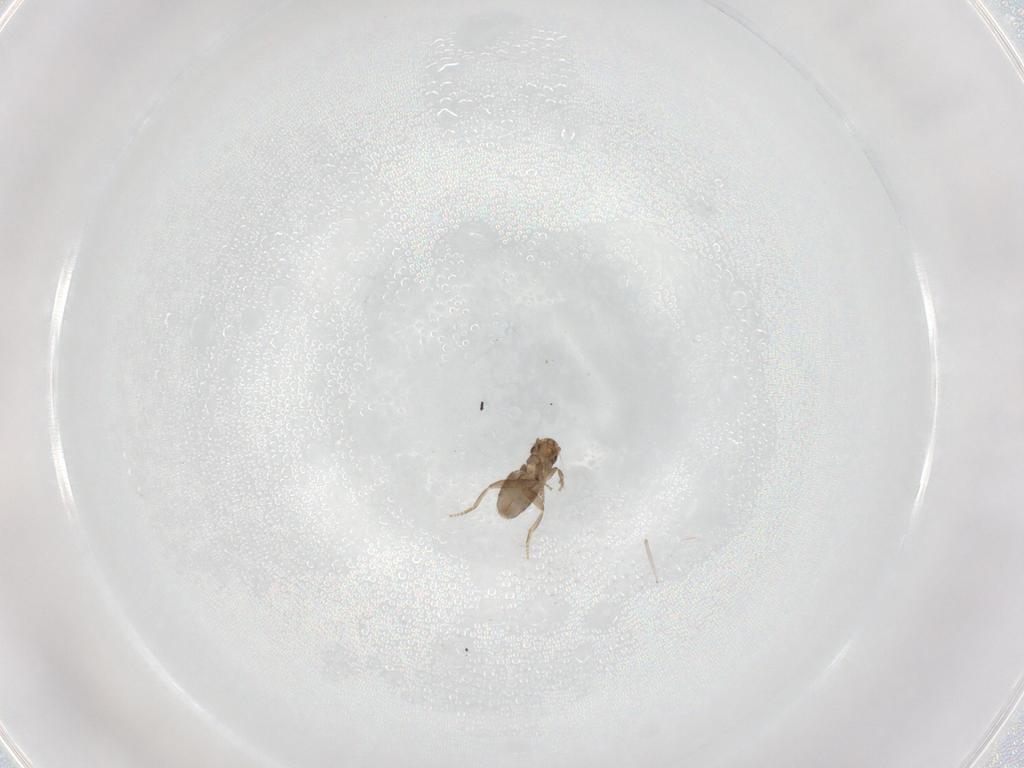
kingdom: Animalia
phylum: Arthropoda
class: Insecta
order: Diptera
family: Cecidomyiidae
